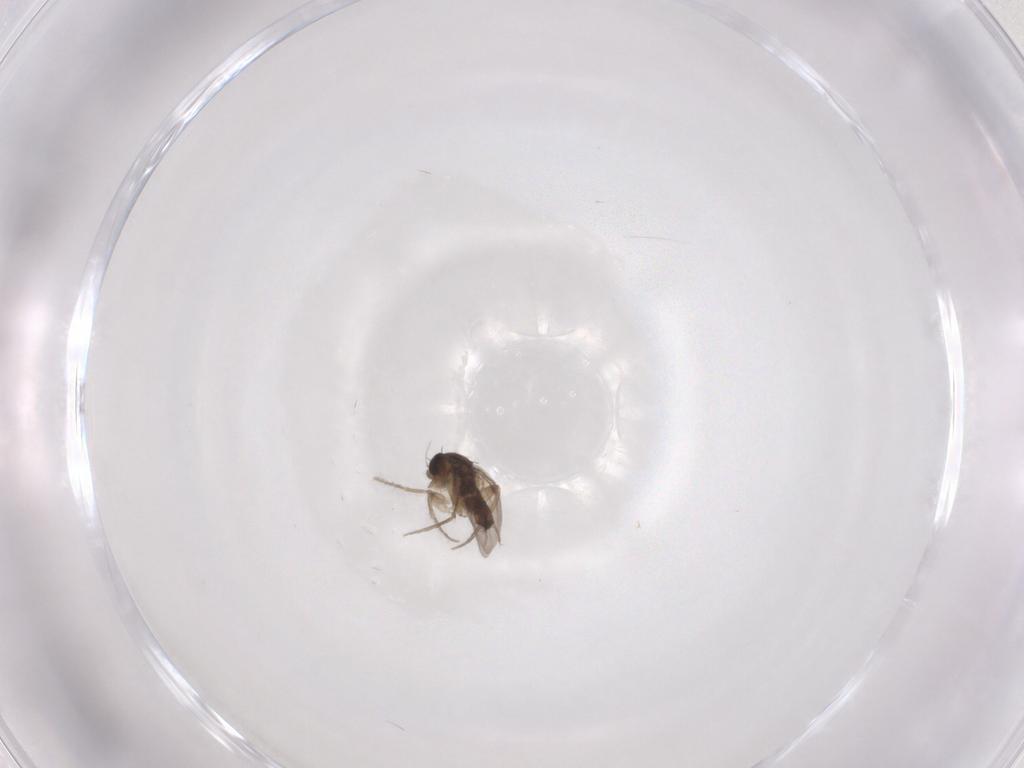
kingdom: Animalia
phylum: Arthropoda
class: Insecta
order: Diptera
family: Phoridae
